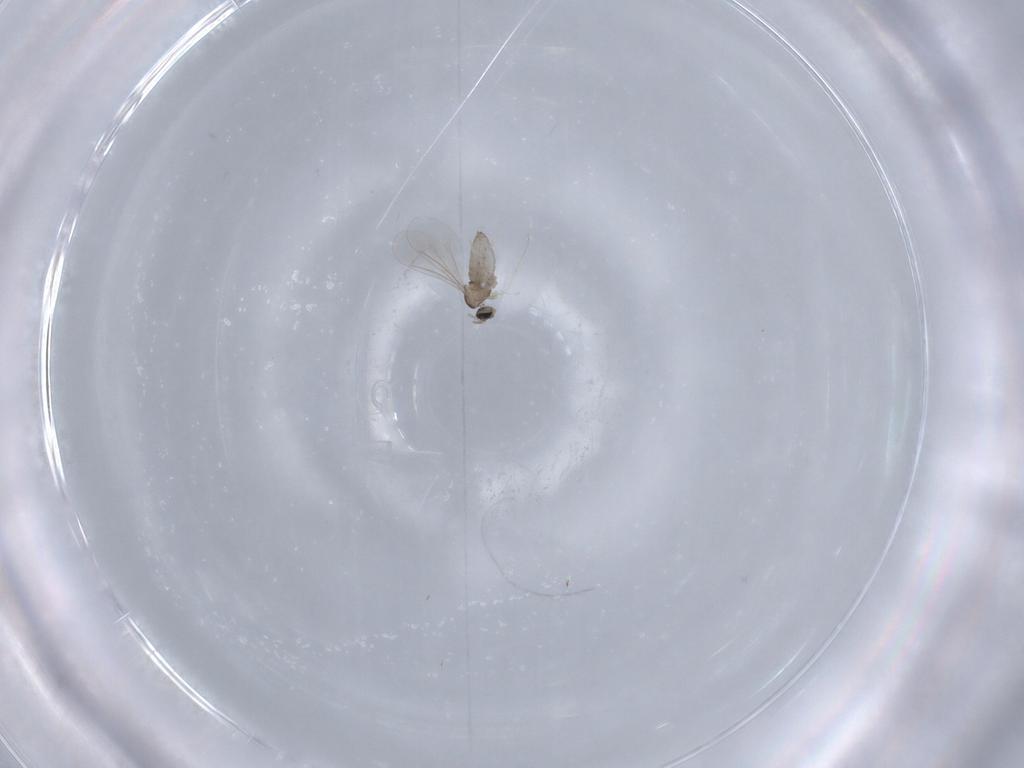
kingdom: Animalia
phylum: Arthropoda
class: Insecta
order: Diptera
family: Cecidomyiidae
